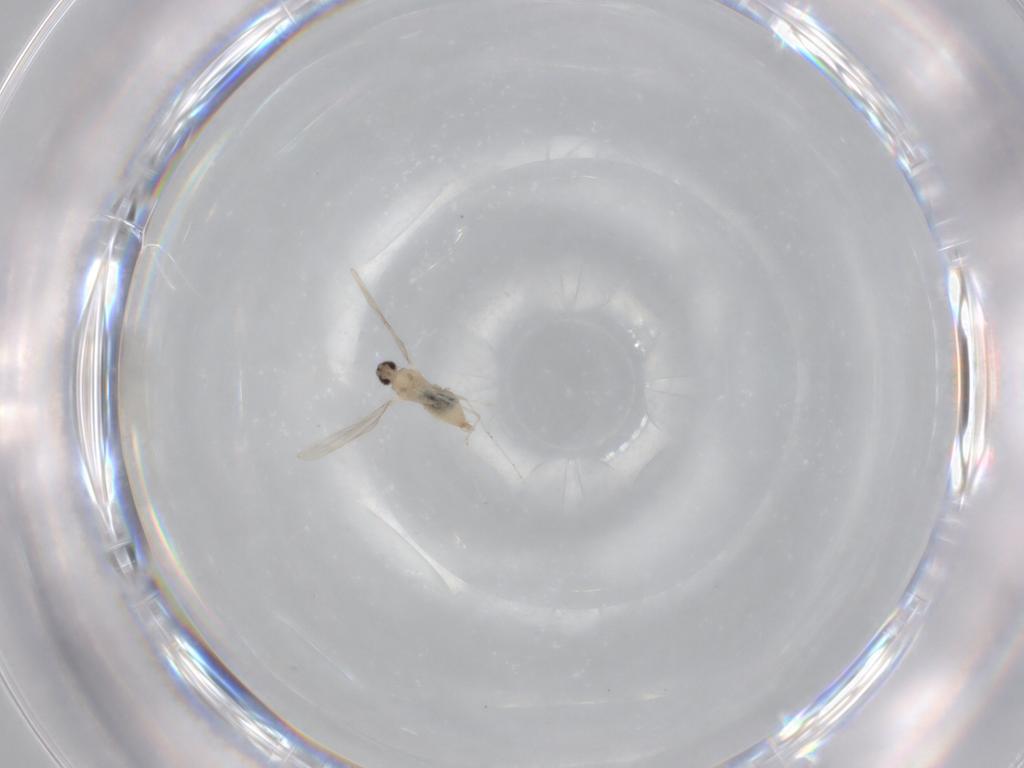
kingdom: Animalia
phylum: Arthropoda
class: Insecta
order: Diptera
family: Cecidomyiidae
